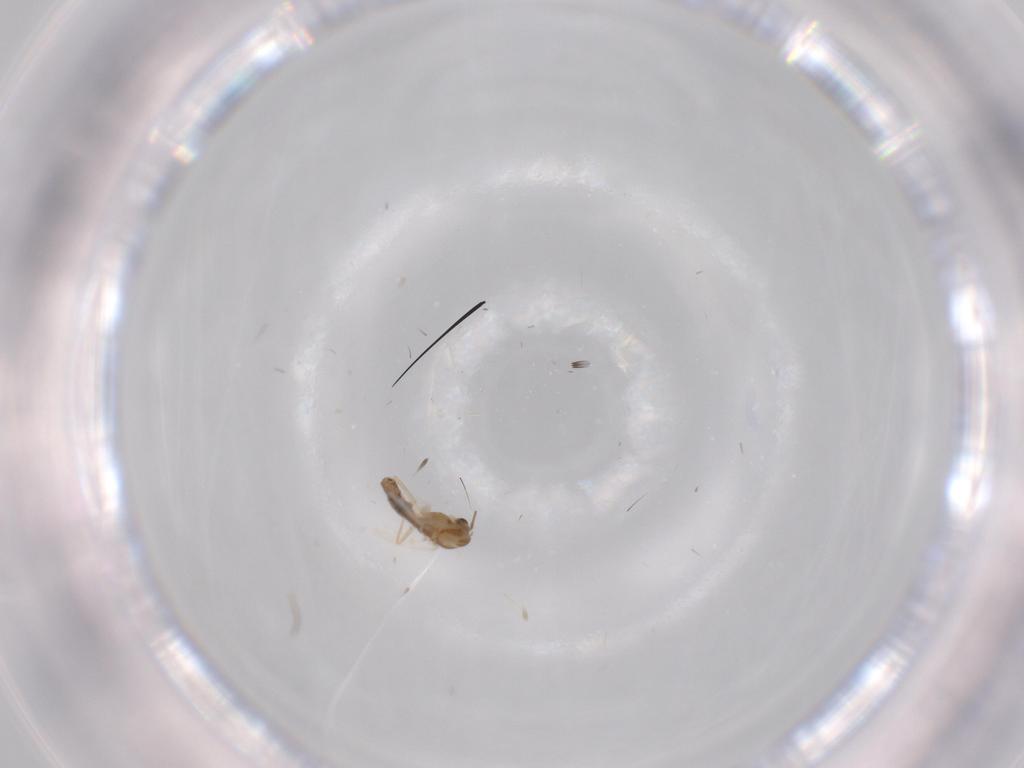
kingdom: Animalia
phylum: Arthropoda
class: Insecta
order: Diptera
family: Chironomidae
